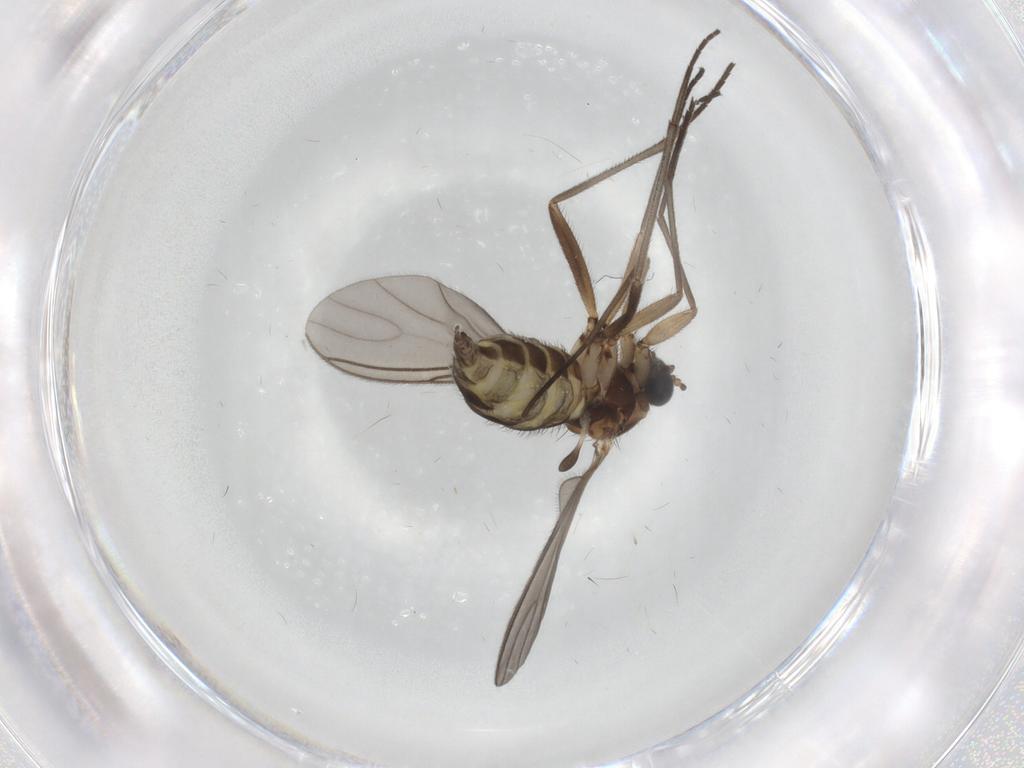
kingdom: Animalia
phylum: Arthropoda
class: Insecta
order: Diptera
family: Sciaridae
